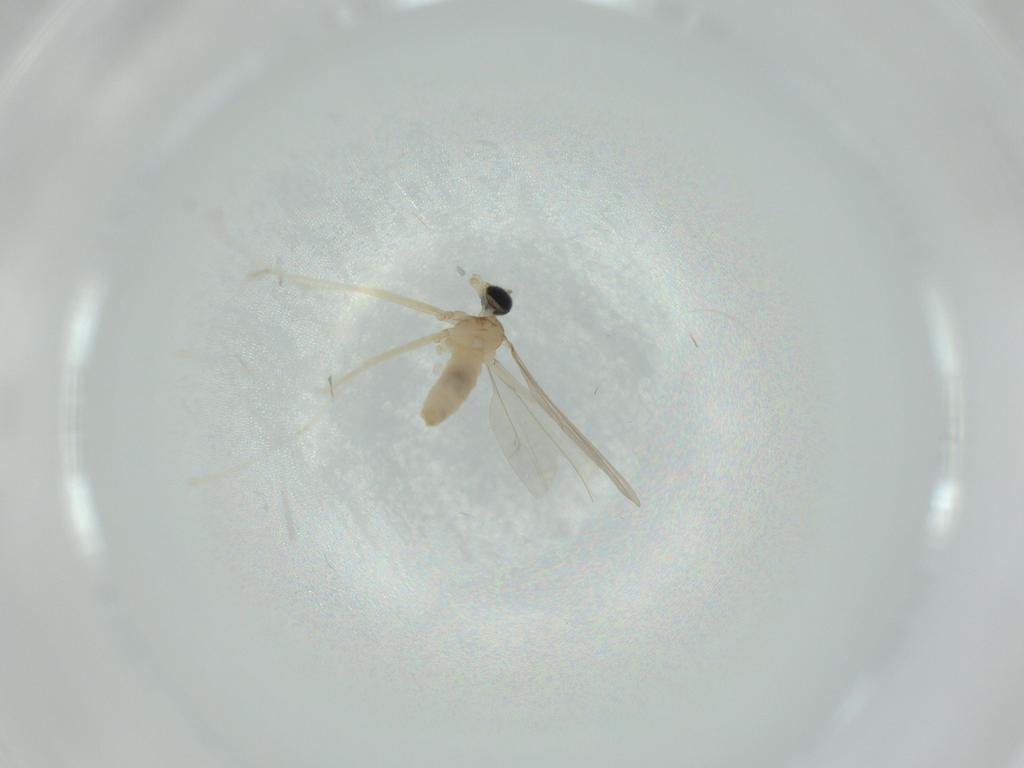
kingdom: Animalia
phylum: Arthropoda
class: Insecta
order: Diptera
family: Cecidomyiidae
